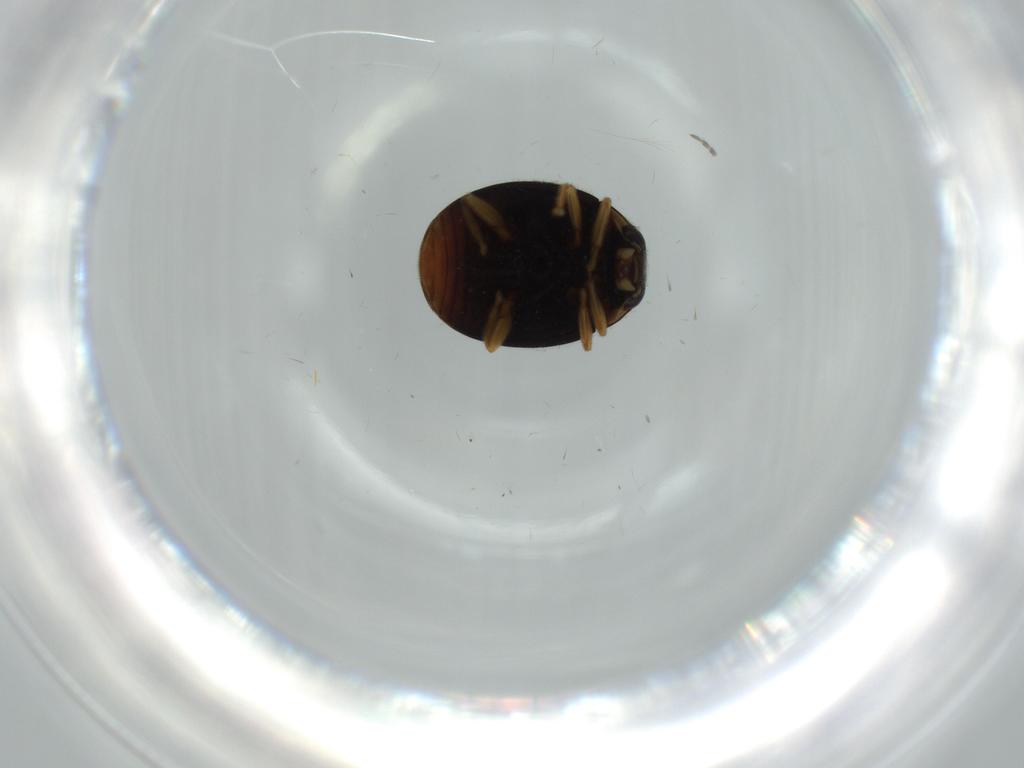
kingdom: Animalia
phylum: Arthropoda
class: Insecta
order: Coleoptera
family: Coccinellidae
